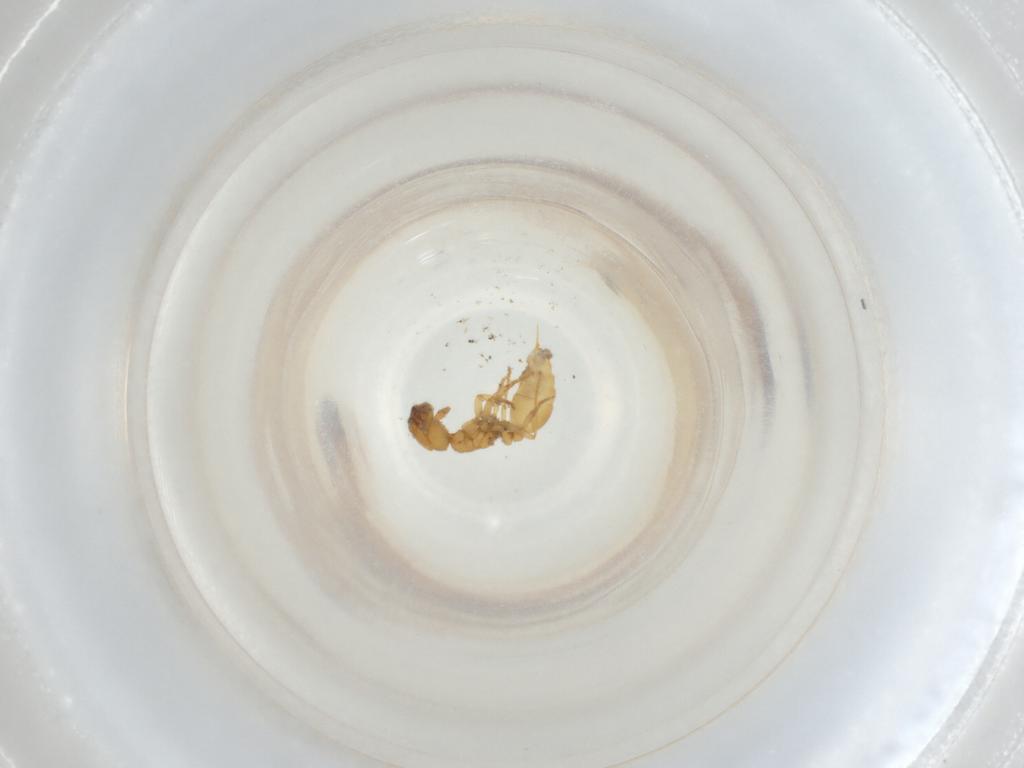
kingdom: Animalia
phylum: Arthropoda
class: Insecta
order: Hymenoptera
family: Formicidae
